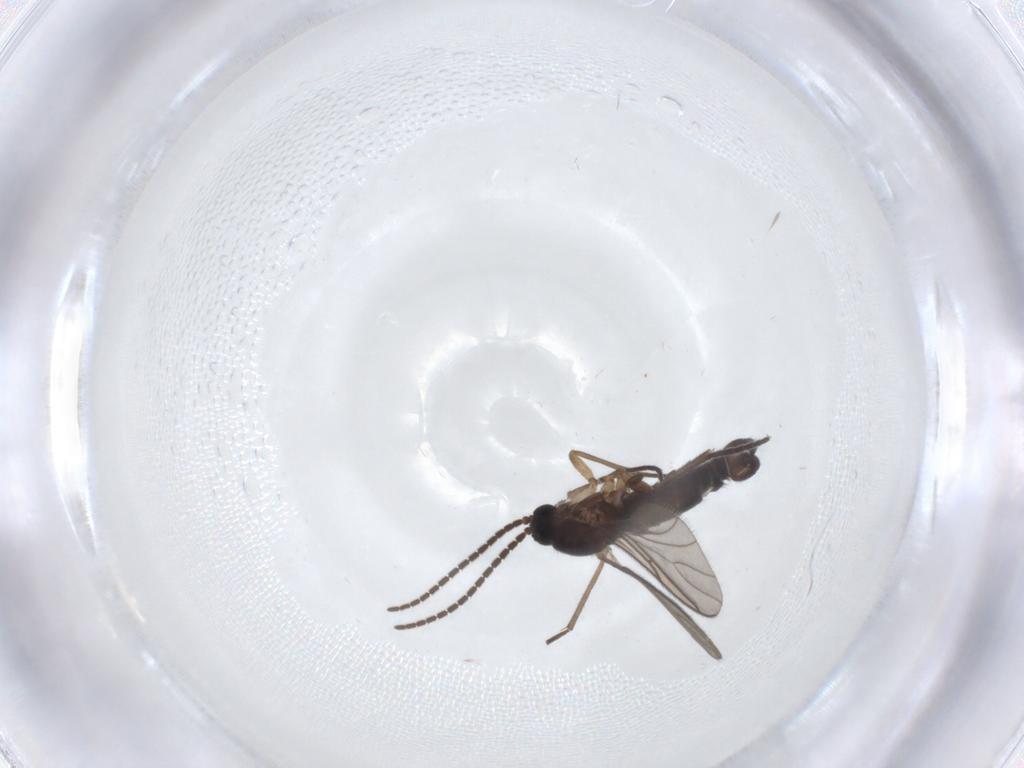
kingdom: Animalia
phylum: Arthropoda
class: Insecta
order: Diptera
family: Sciaridae
